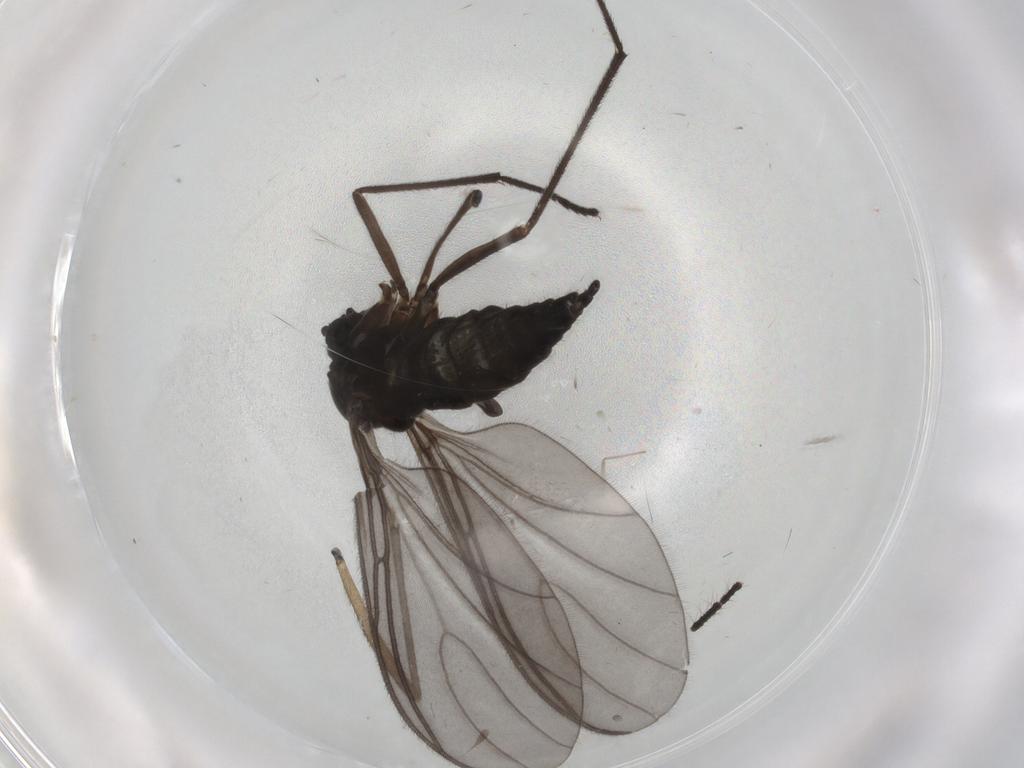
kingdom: Animalia
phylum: Arthropoda
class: Insecta
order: Diptera
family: Sciaridae
